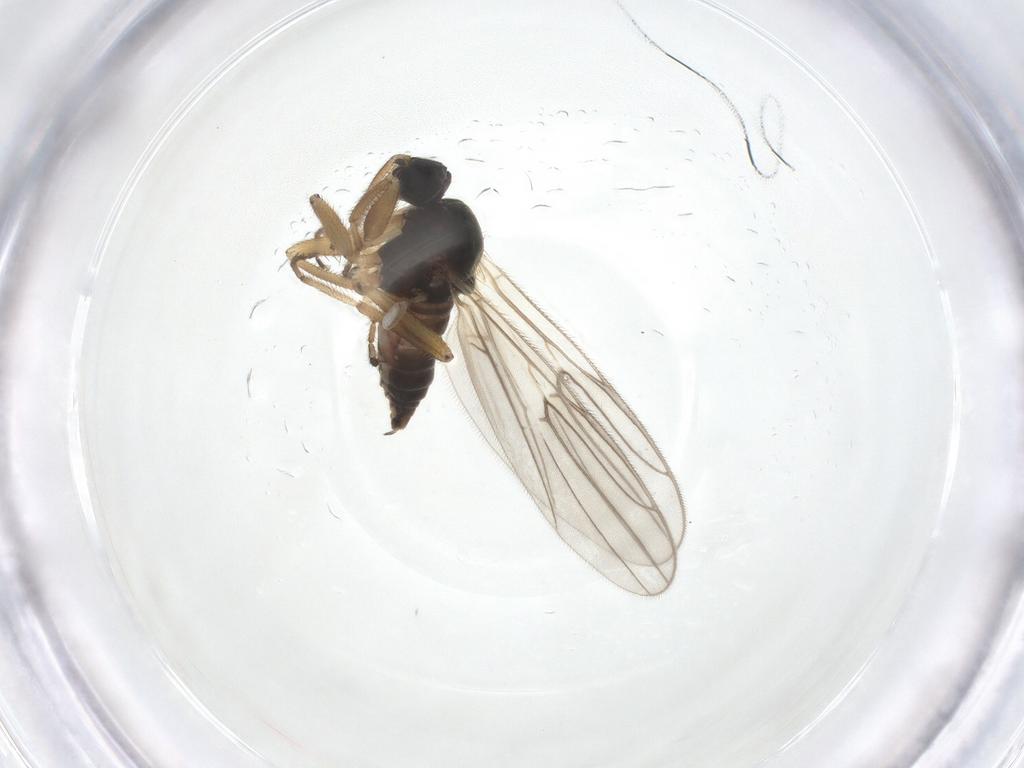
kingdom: Animalia
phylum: Arthropoda
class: Insecta
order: Diptera
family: Hybotidae
